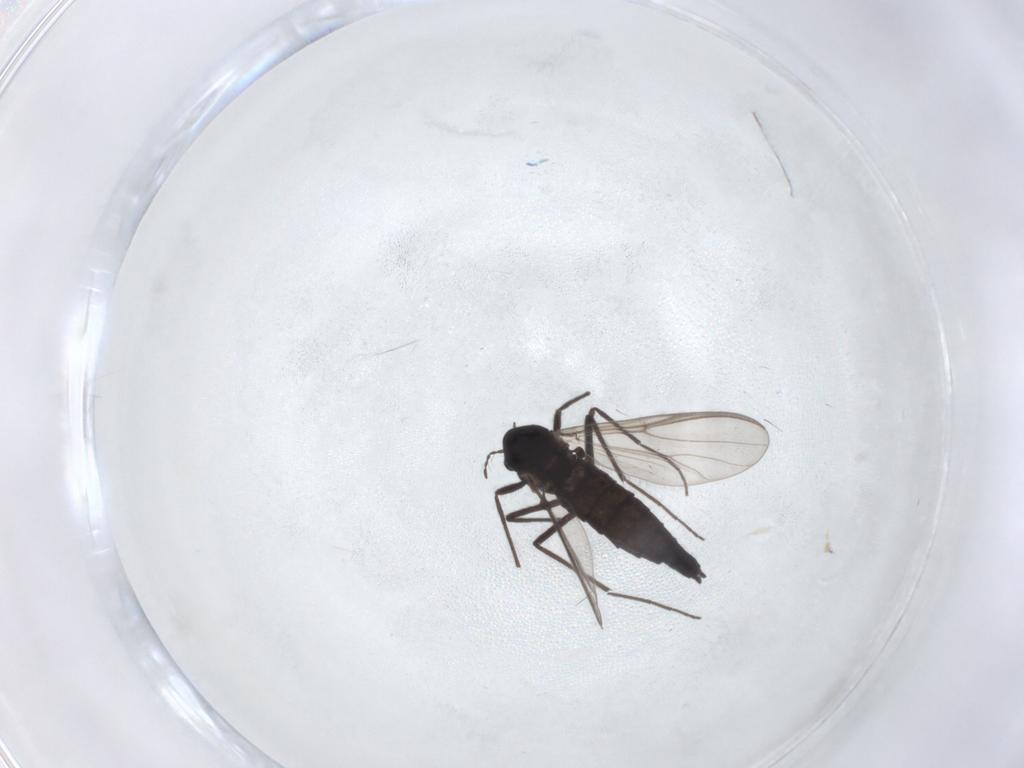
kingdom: Animalia
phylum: Arthropoda
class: Insecta
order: Diptera
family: Chironomidae
